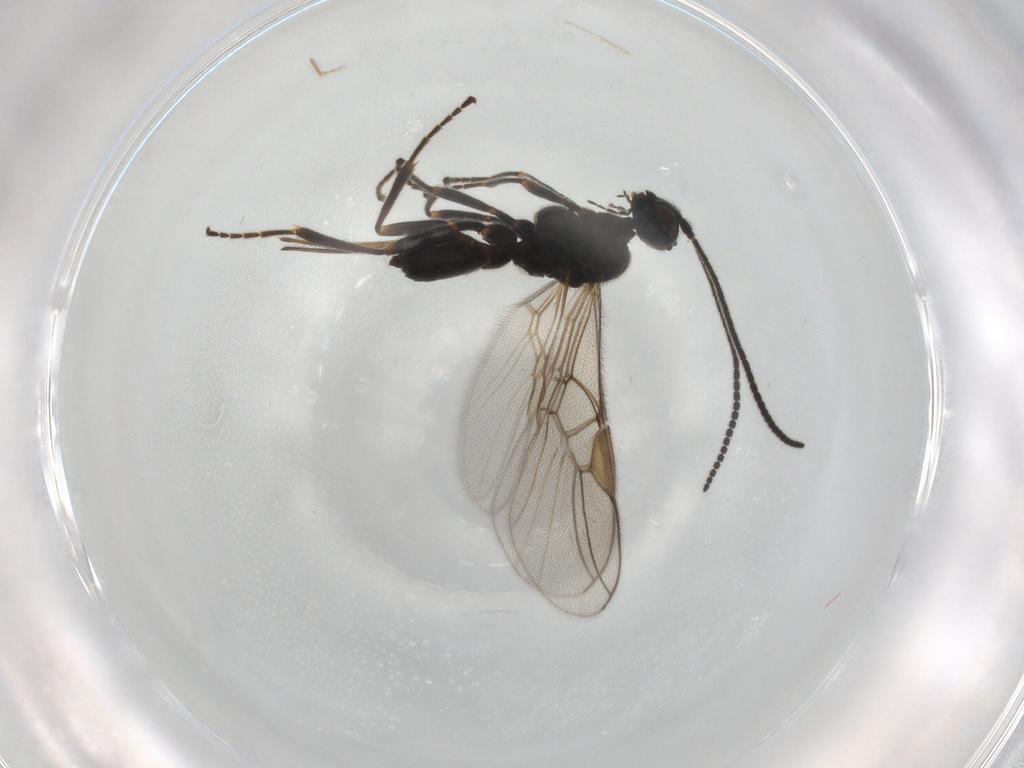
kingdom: Animalia
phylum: Arthropoda
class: Insecta
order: Hymenoptera
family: Braconidae
